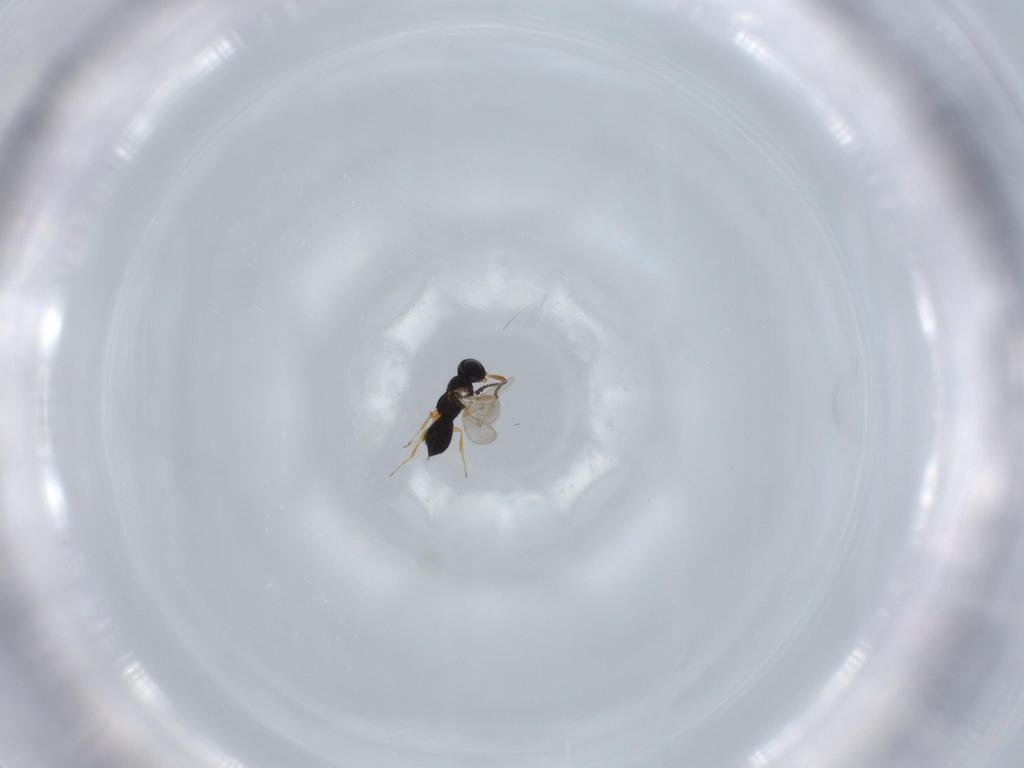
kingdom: Animalia
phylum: Arthropoda
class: Insecta
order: Hymenoptera
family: Scelionidae
